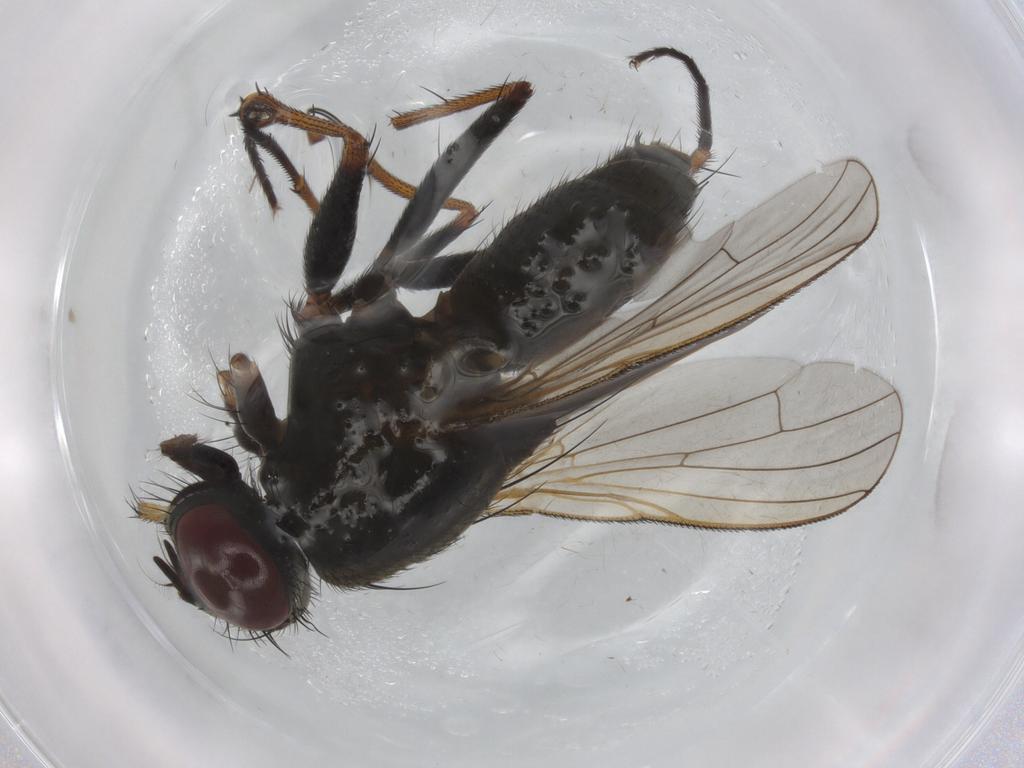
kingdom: Animalia
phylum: Arthropoda
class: Insecta
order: Diptera
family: Muscidae
